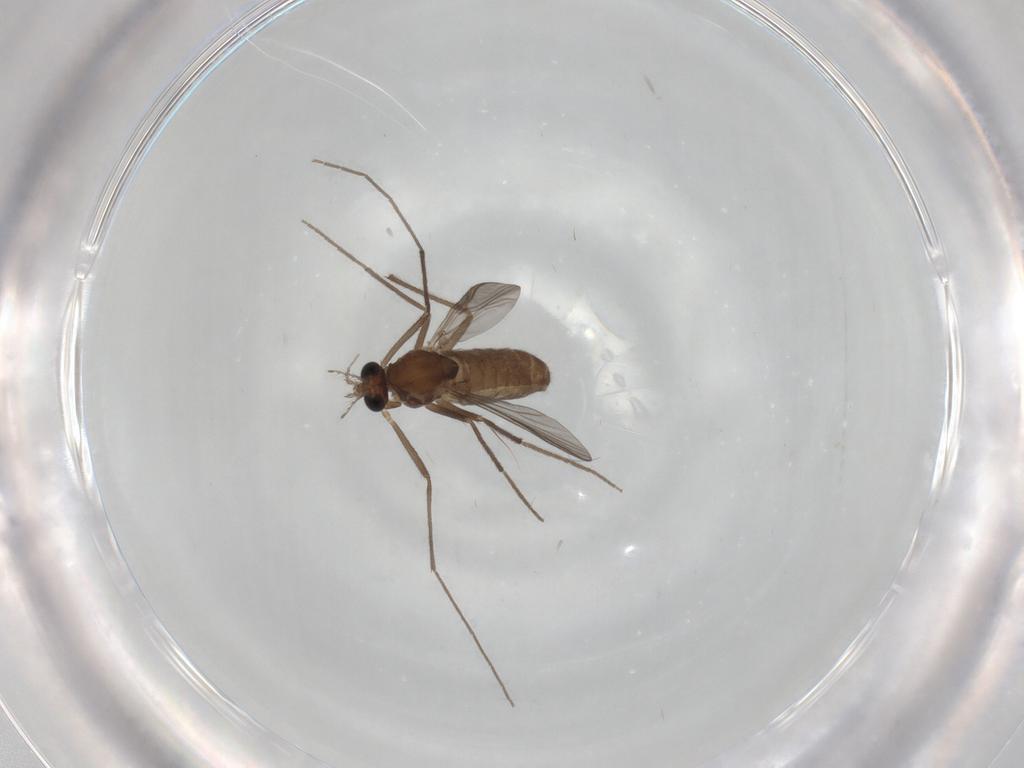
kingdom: Animalia
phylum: Arthropoda
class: Insecta
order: Diptera
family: Chironomidae
